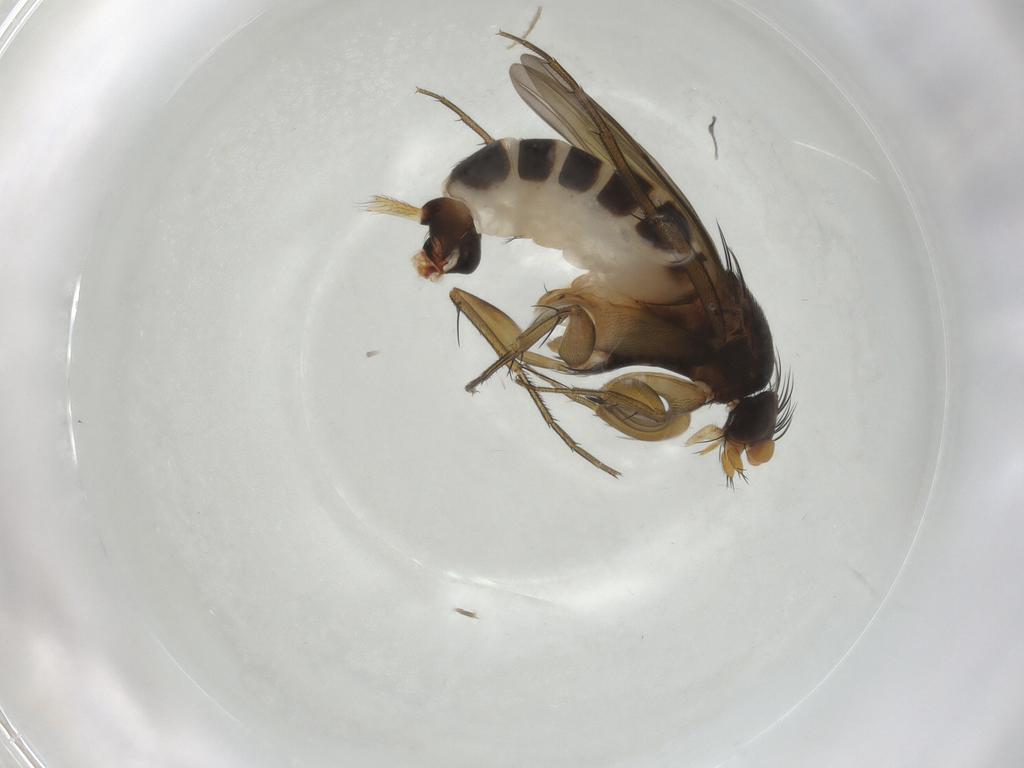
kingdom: Animalia
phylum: Arthropoda
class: Insecta
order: Diptera
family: Phoridae
